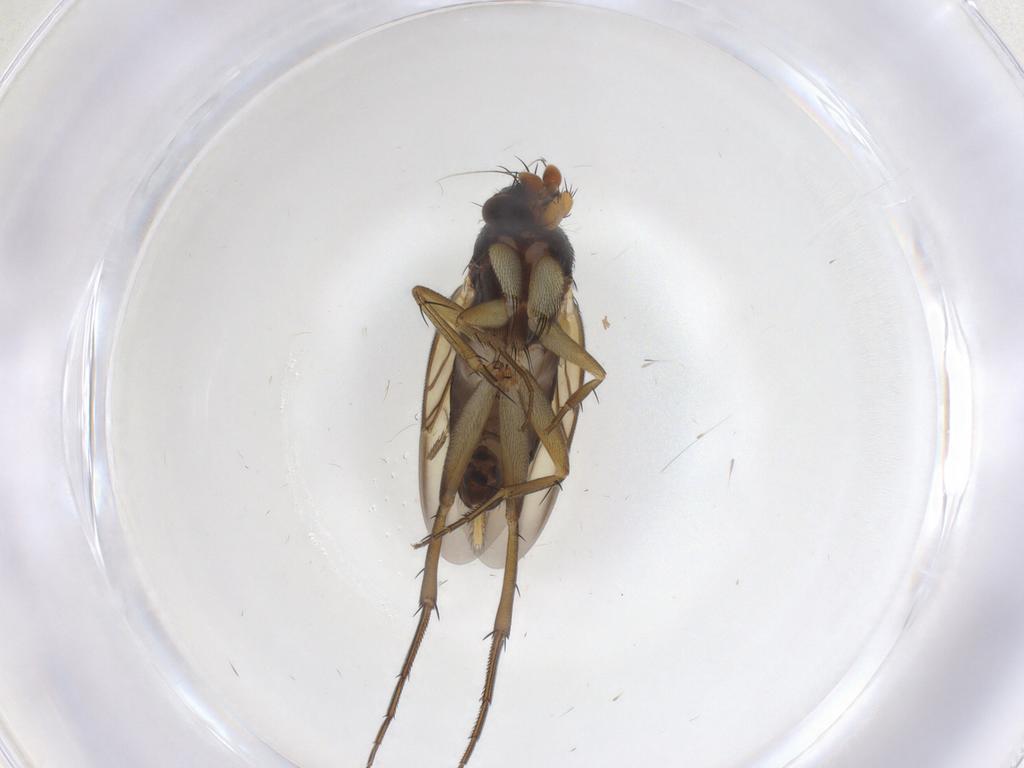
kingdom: Animalia
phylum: Arthropoda
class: Insecta
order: Diptera
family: Phoridae
